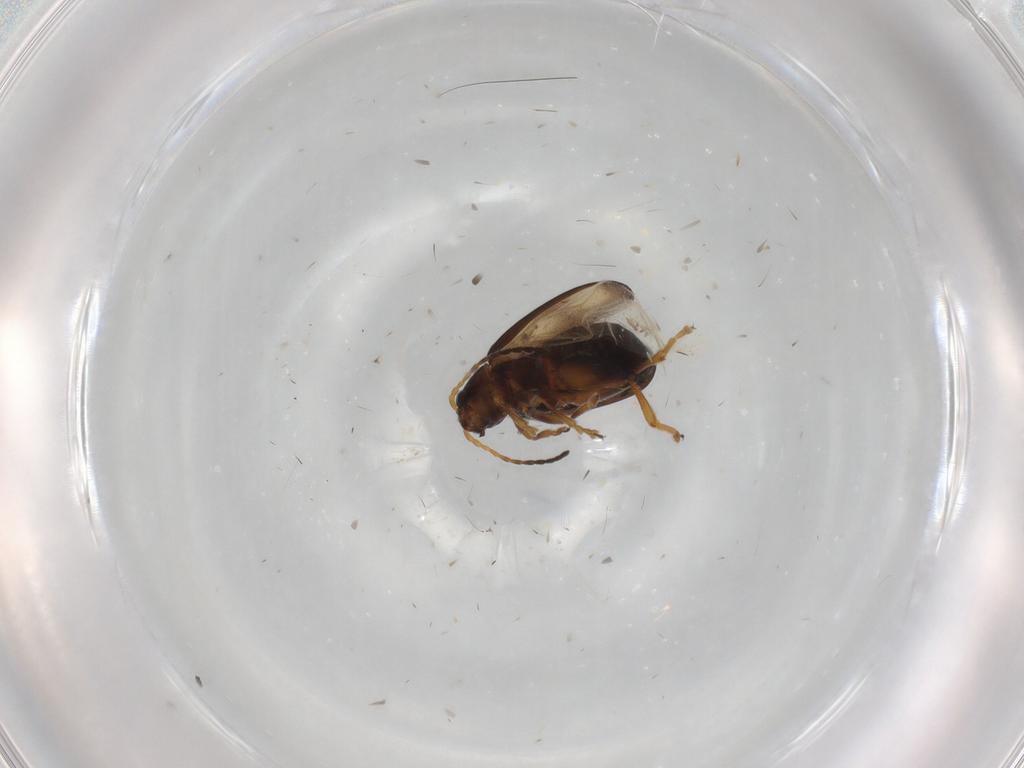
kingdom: Animalia
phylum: Arthropoda
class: Insecta
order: Coleoptera
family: Chrysomelidae
